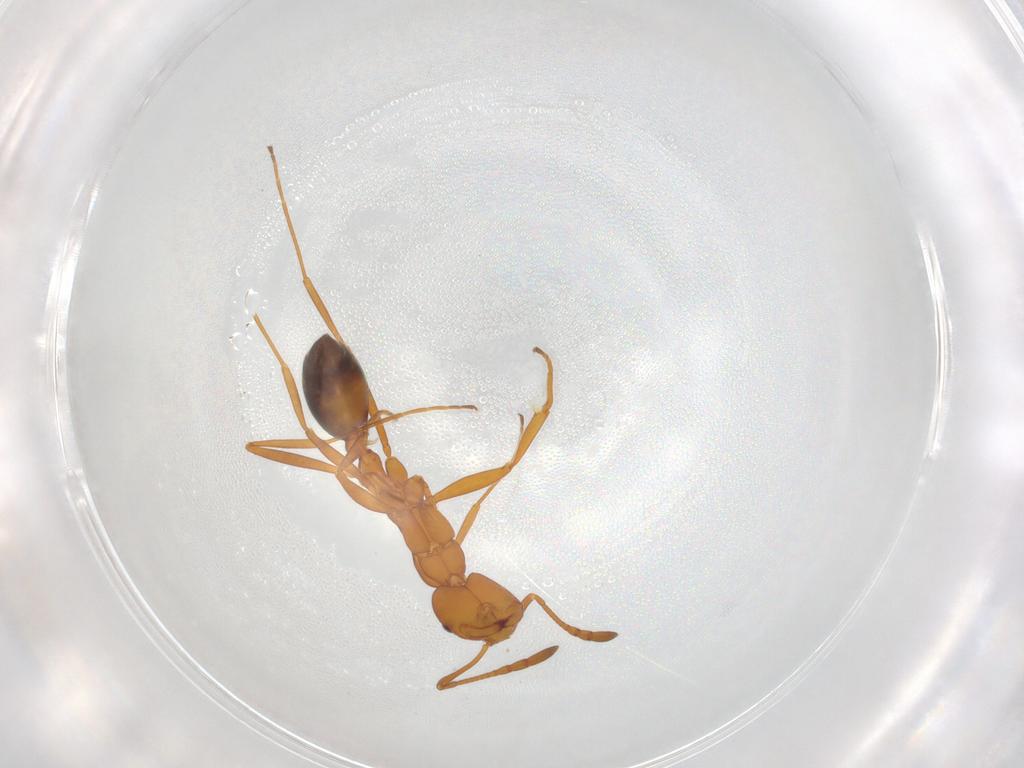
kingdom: Animalia
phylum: Arthropoda
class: Insecta
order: Hymenoptera
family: Formicidae
